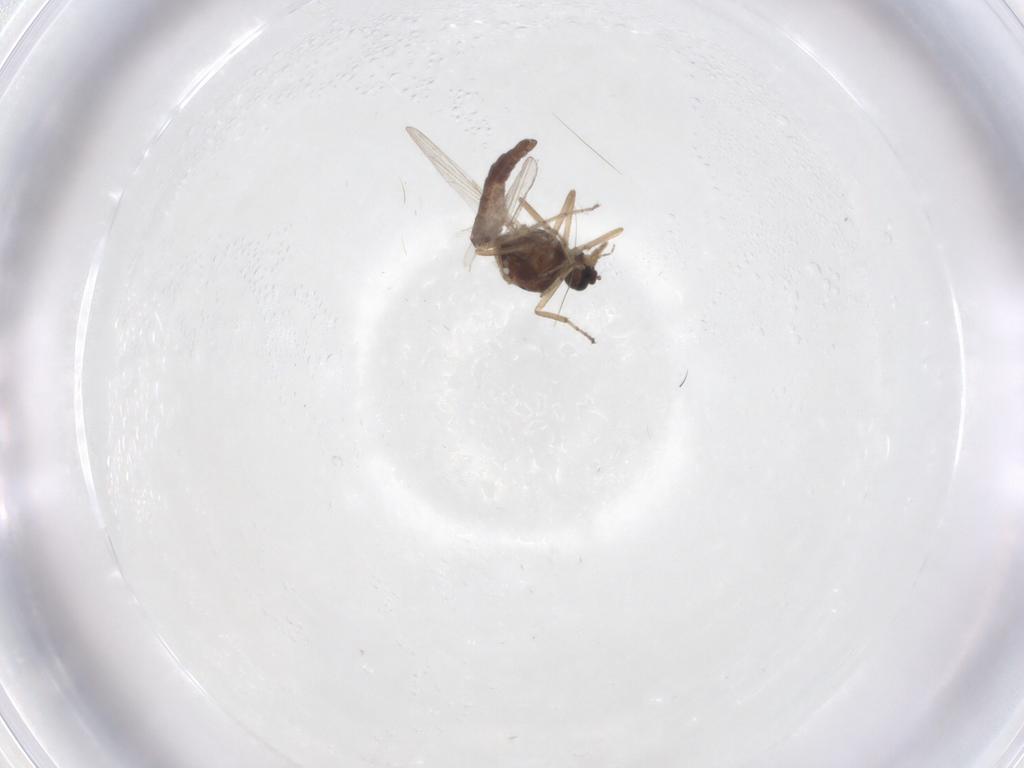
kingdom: Animalia
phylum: Arthropoda
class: Insecta
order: Diptera
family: Ceratopogonidae
